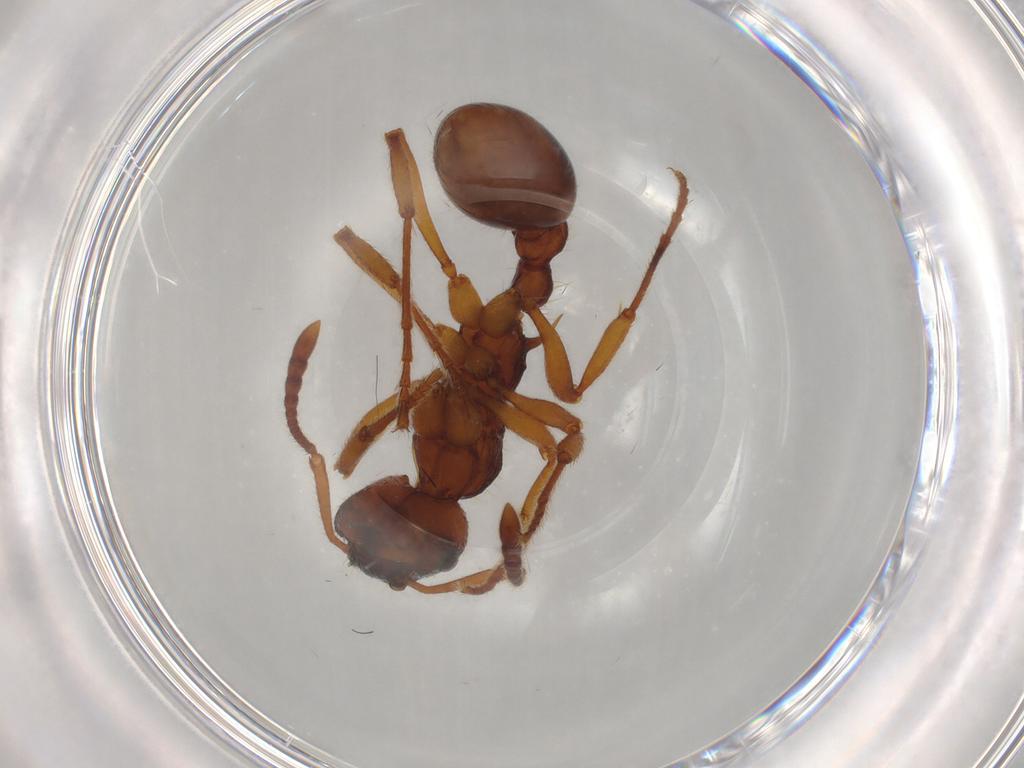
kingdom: Animalia
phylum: Arthropoda
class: Insecta
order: Hymenoptera
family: Formicidae
